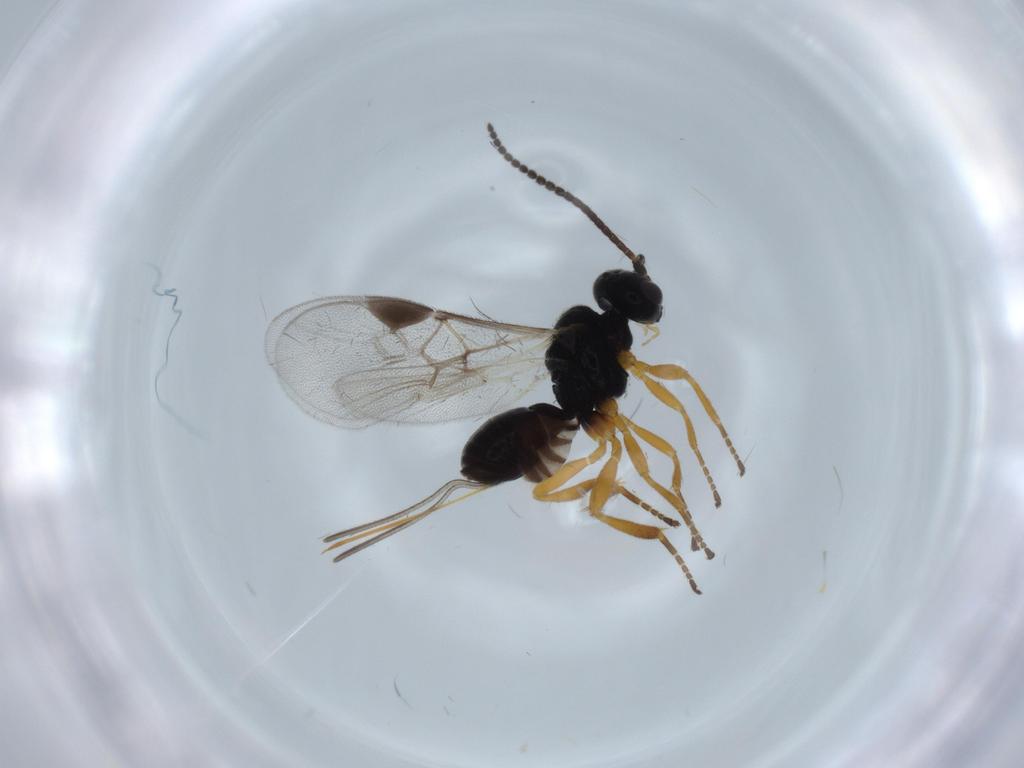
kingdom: Animalia
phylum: Arthropoda
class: Insecta
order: Hymenoptera
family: Braconidae
